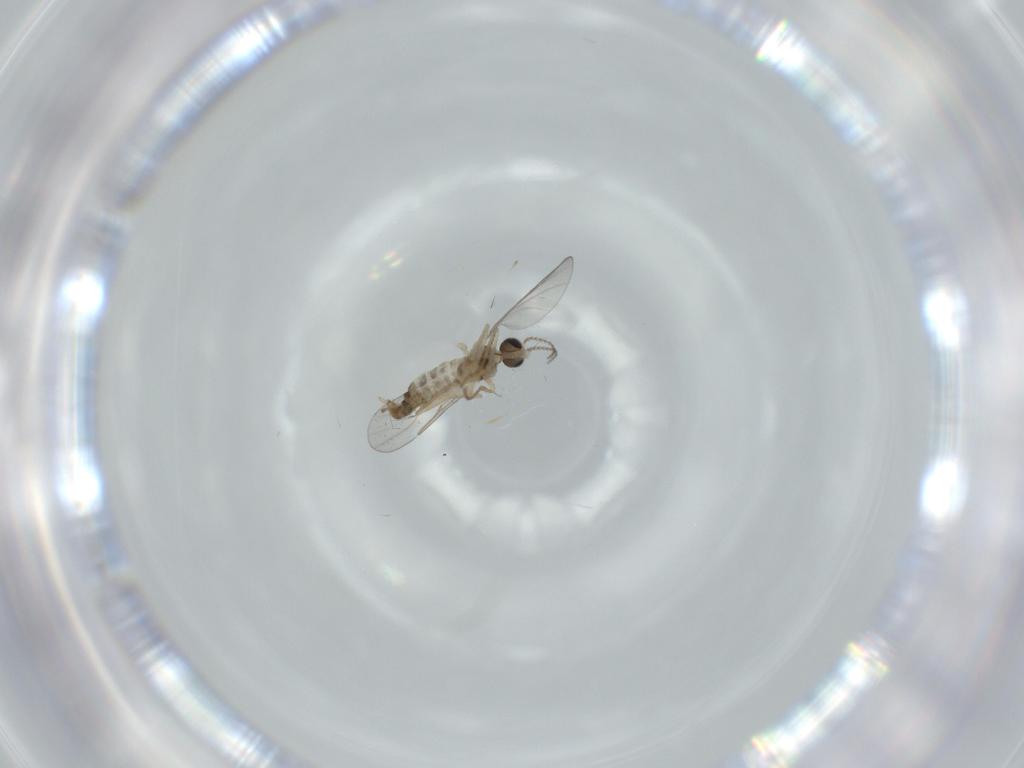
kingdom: Animalia
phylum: Arthropoda
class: Insecta
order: Diptera
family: Cecidomyiidae
